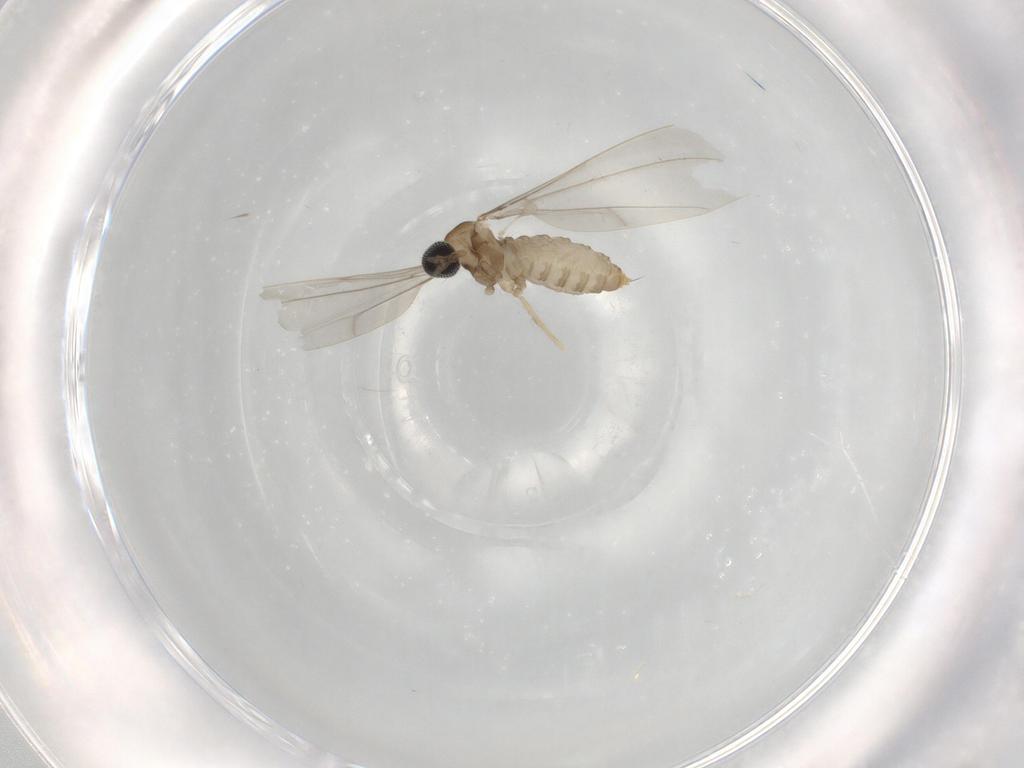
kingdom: Animalia
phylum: Arthropoda
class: Insecta
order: Diptera
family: Cecidomyiidae
